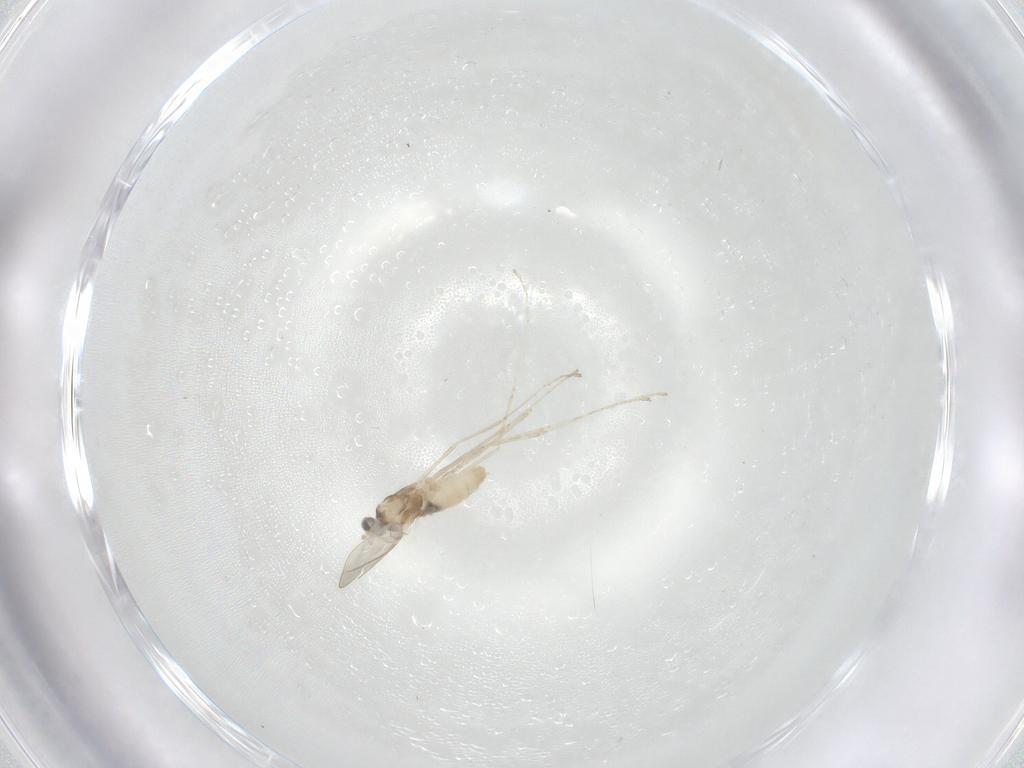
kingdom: Animalia
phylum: Arthropoda
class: Insecta
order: Diptera
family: Cecidomyiidae
